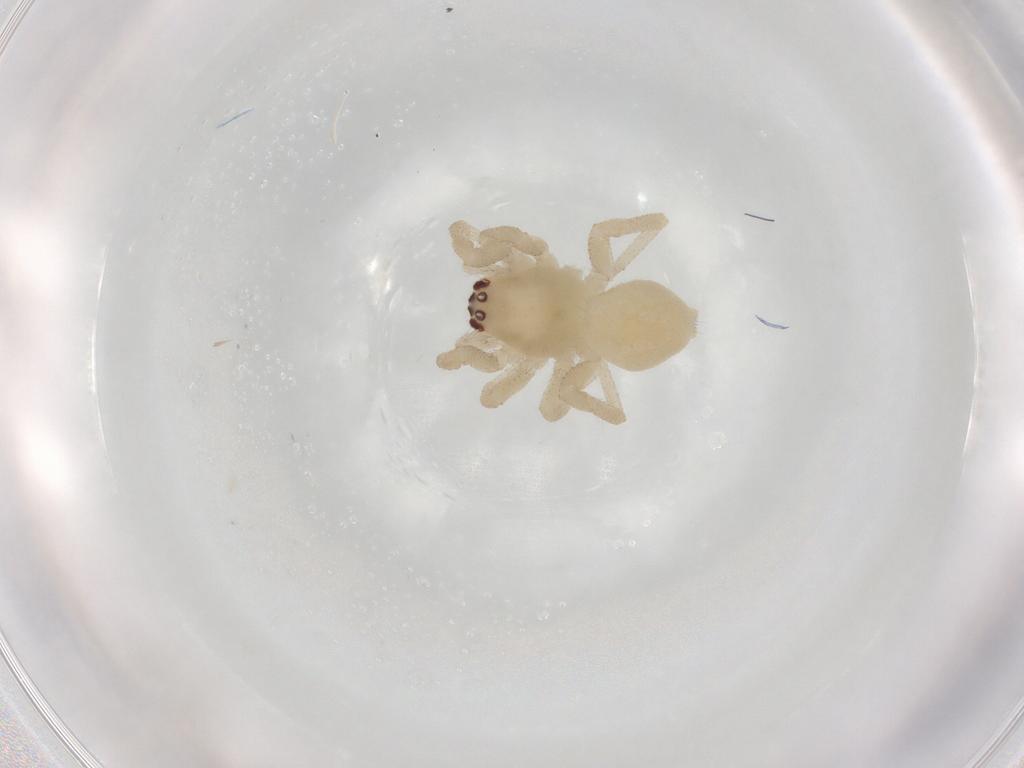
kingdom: Animalia
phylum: Arthropoda
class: Arachnida
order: Araneae
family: Cheiracanthiidae
